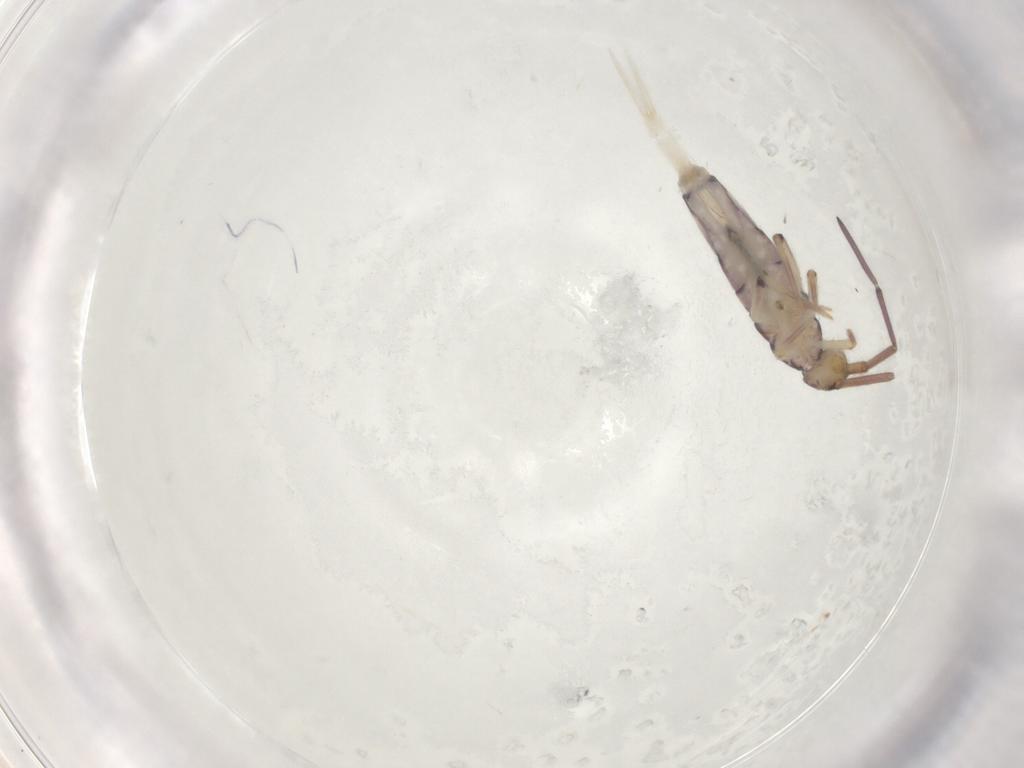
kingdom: Animalia
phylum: Arthropoda
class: Collembola
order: Entomobryomorpha
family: Entomobryidae
